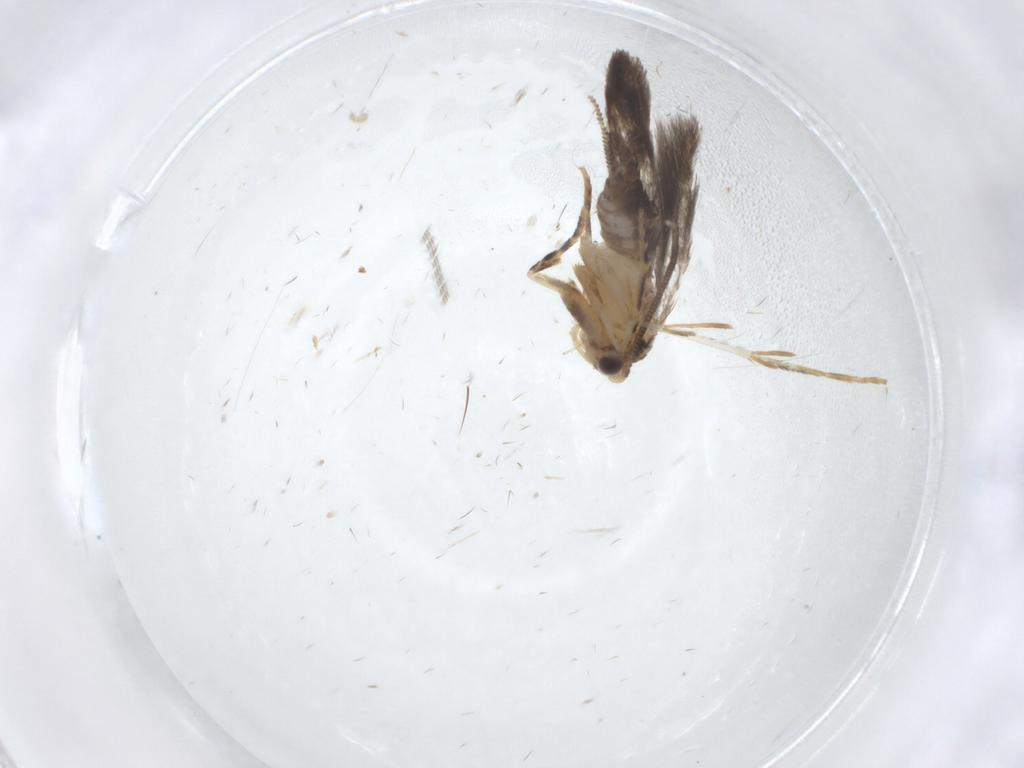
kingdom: Animalia
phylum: Arthropoda
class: Insecta
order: Lepidoptera
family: Tineidae
